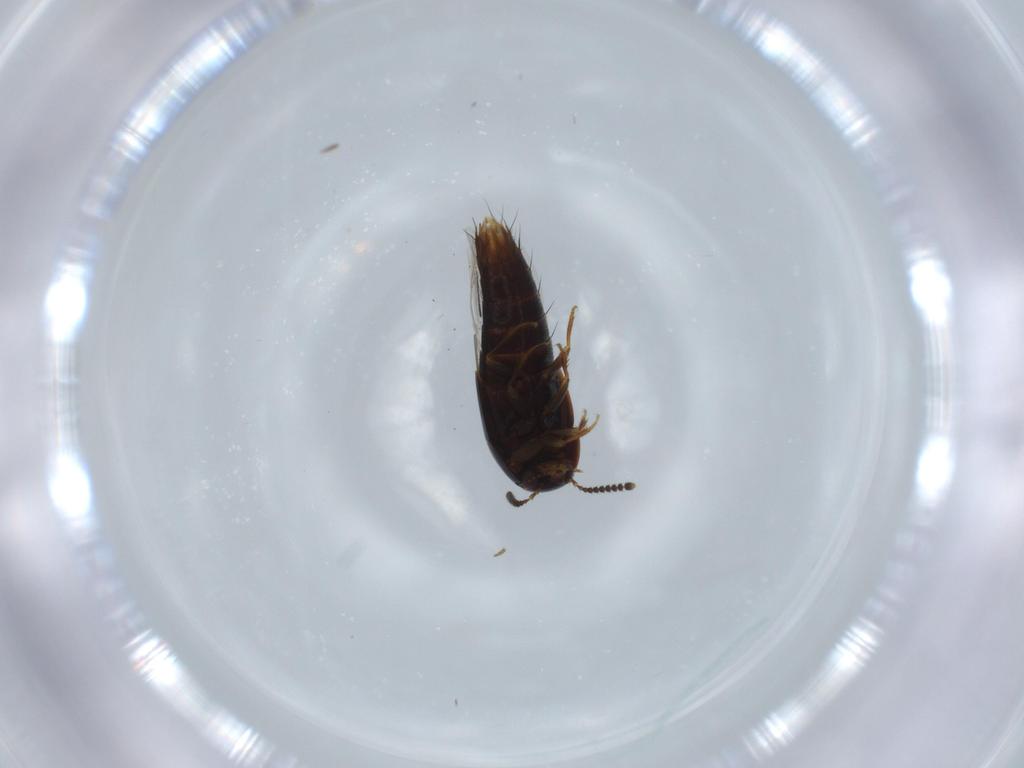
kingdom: Animalia
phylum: Arthropoda
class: Insecta
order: Coleoptera
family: Staphylinidae
